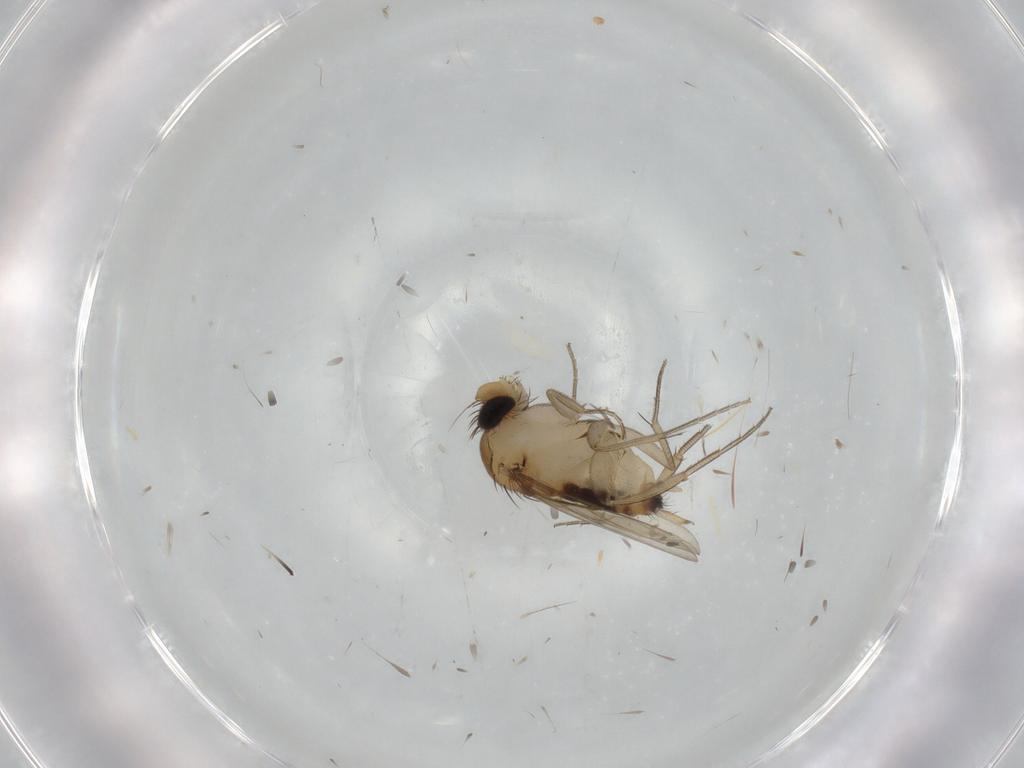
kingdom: Animalia
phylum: Arthropoda
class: Insecta
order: Diptera
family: Phoridae
